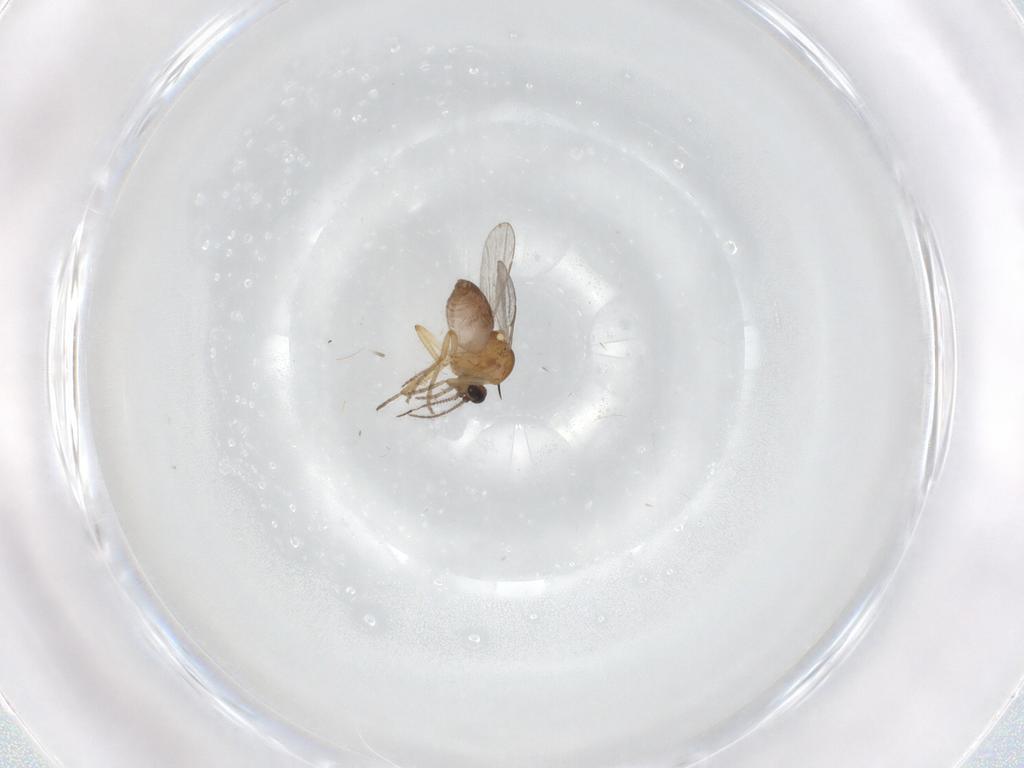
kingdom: Animalia
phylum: Arthropoda
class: Insecta
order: Diptera
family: Ceratopogonidae
